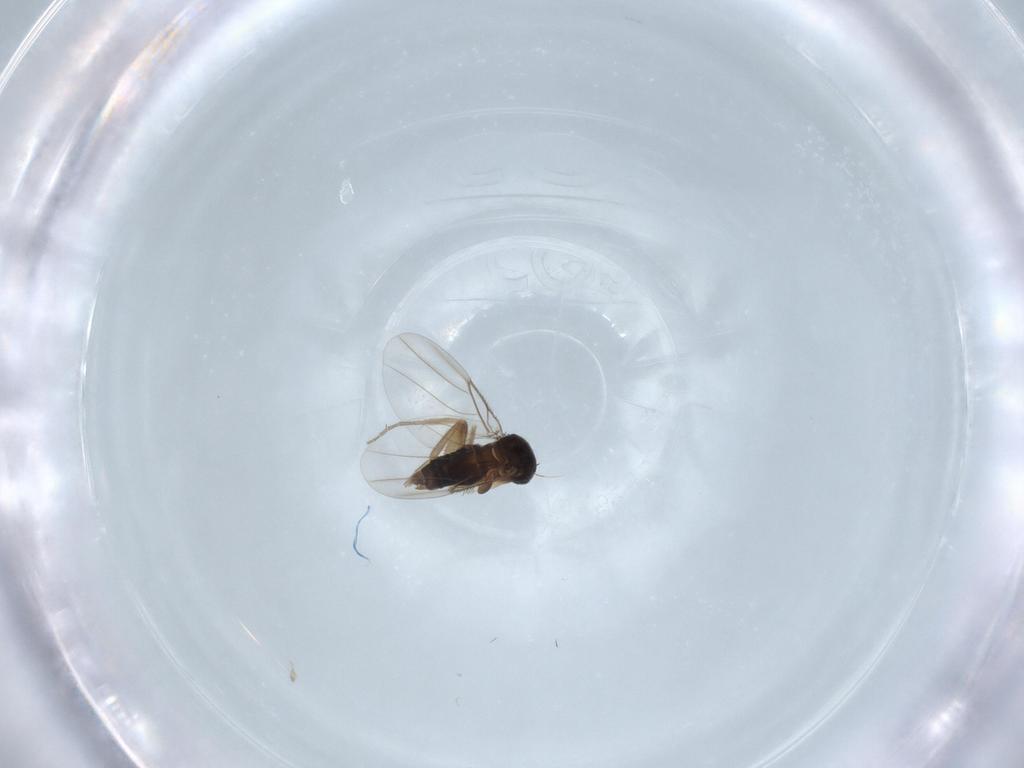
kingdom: Animalia
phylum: Arthropoda
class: Insecta
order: Diptera
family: Phoridae
